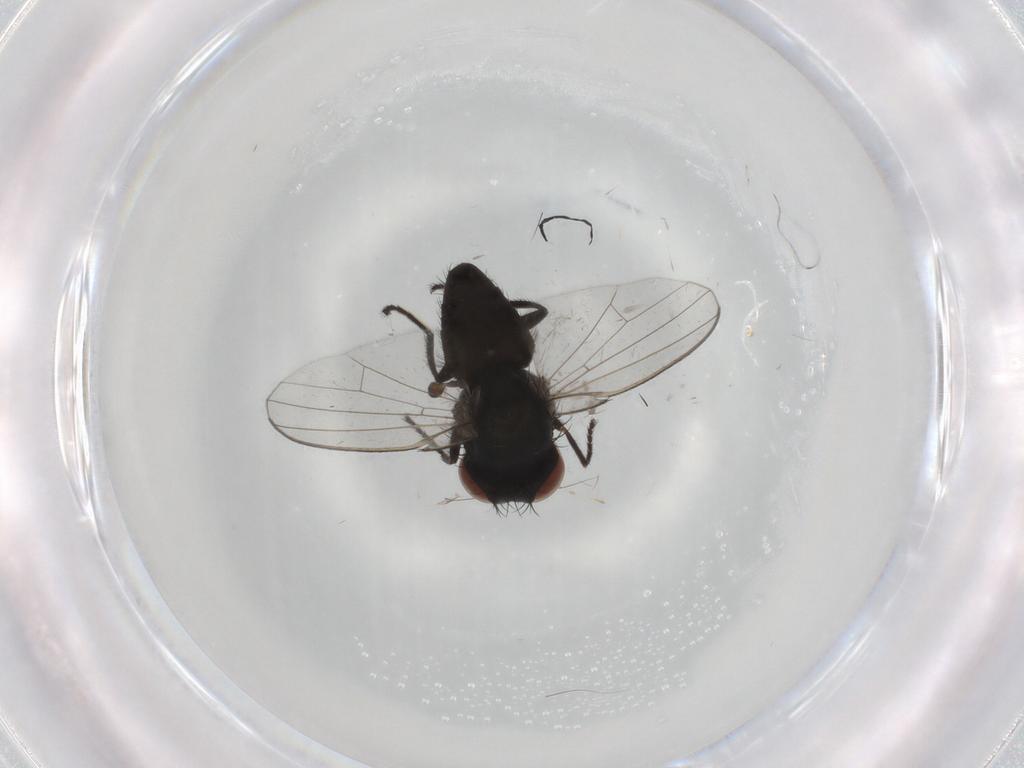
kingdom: Animalia
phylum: Arthropoda
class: Insecta
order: Diptera
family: Milichiidae
